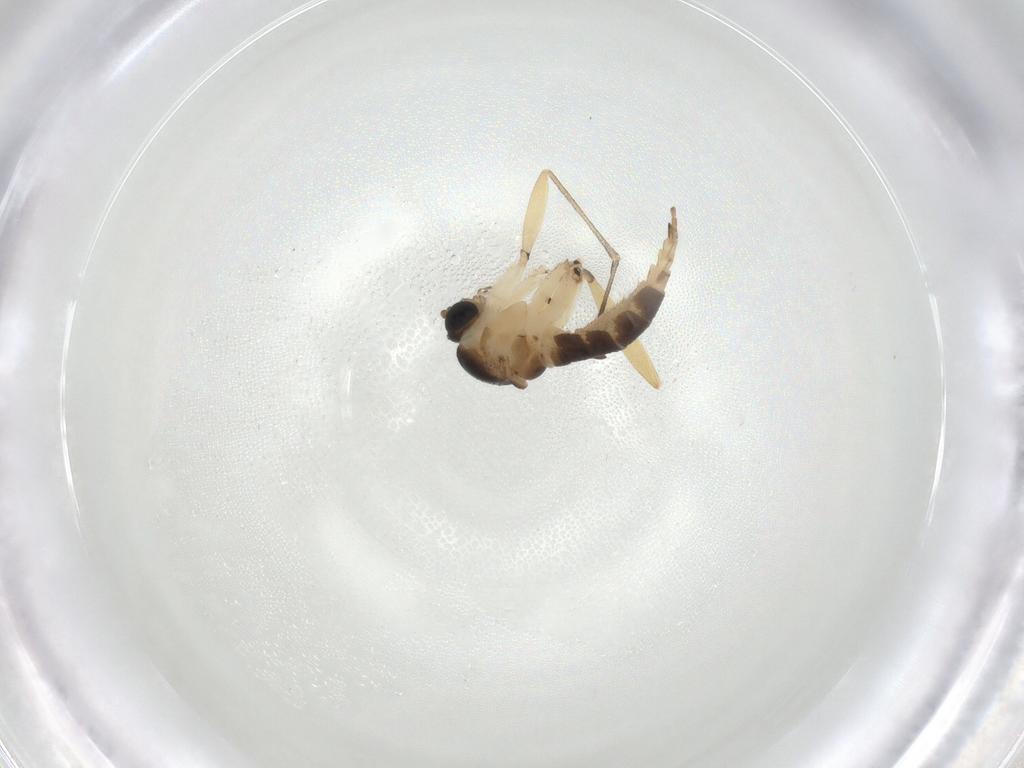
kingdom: Animalia
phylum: Arthropoda
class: Insecta
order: Diptera
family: Sciaridae
